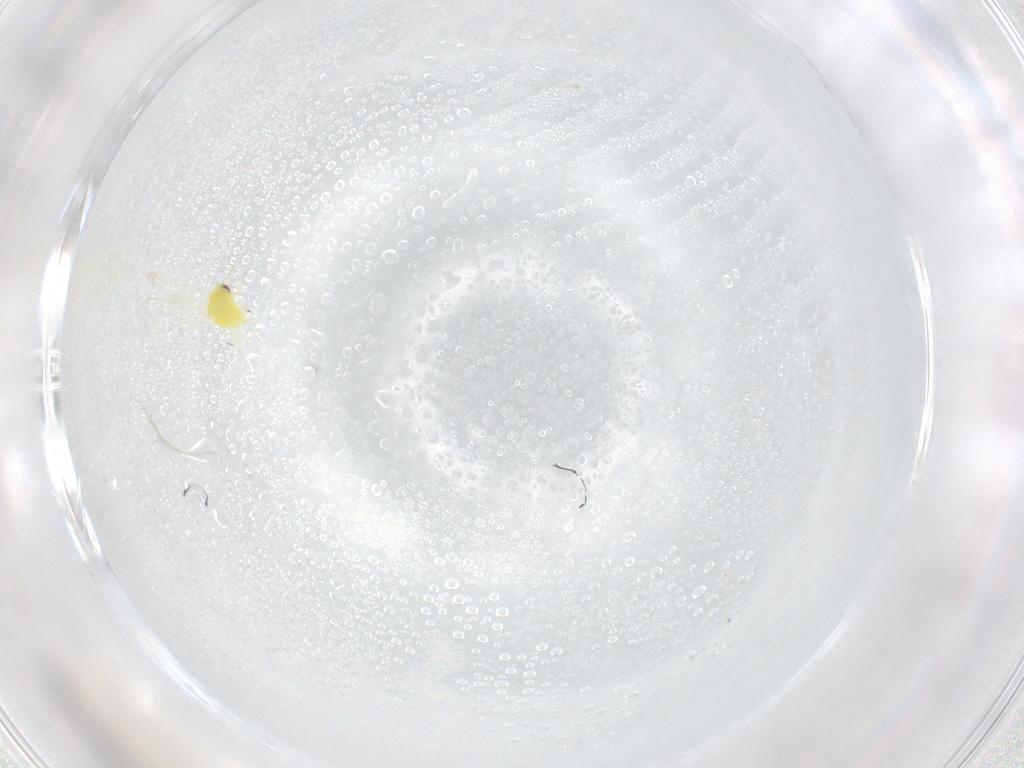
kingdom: Animalia
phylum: Arthropoda
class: Insecta
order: Hemiptera
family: Aleyrodidae
